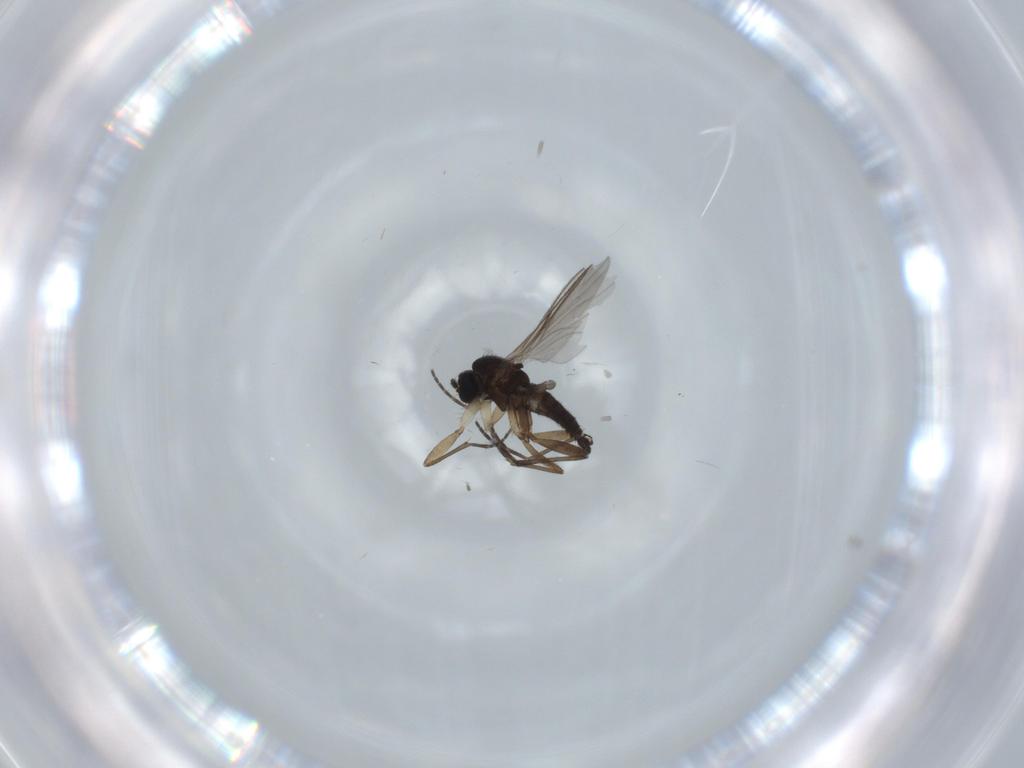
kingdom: Animalia
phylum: Arthropoda
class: Insecta
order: Diptera
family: Sciaridae
